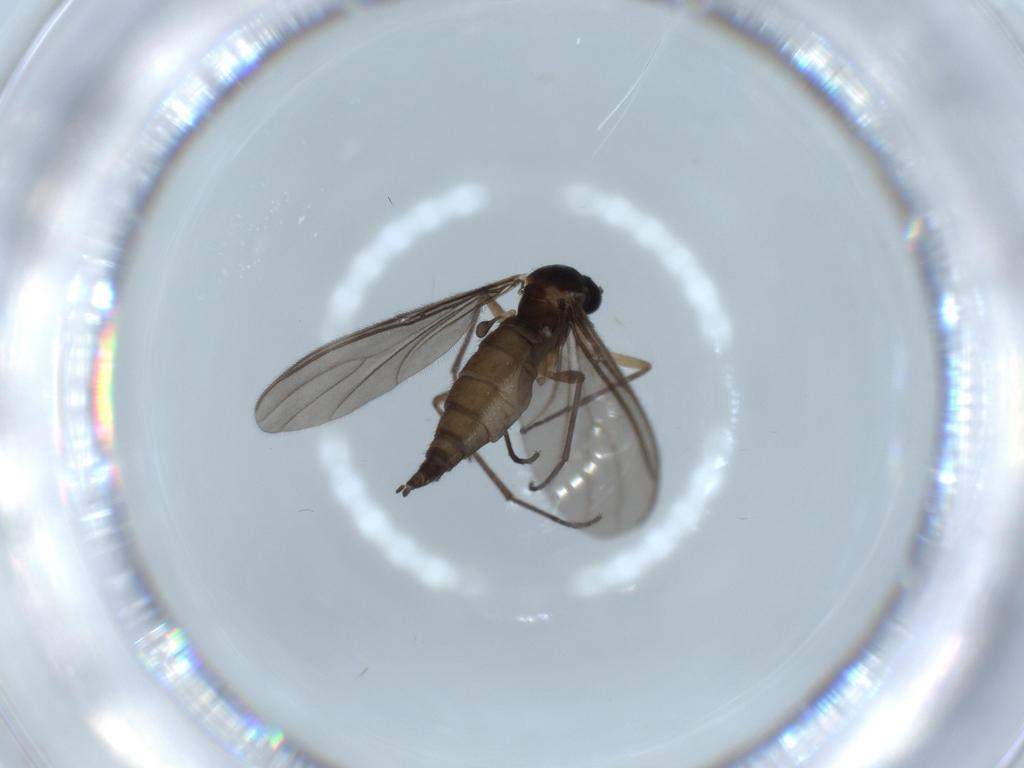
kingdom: Animalia
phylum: Arthropoda
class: Insecta
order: Diptera
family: Sciaridae
